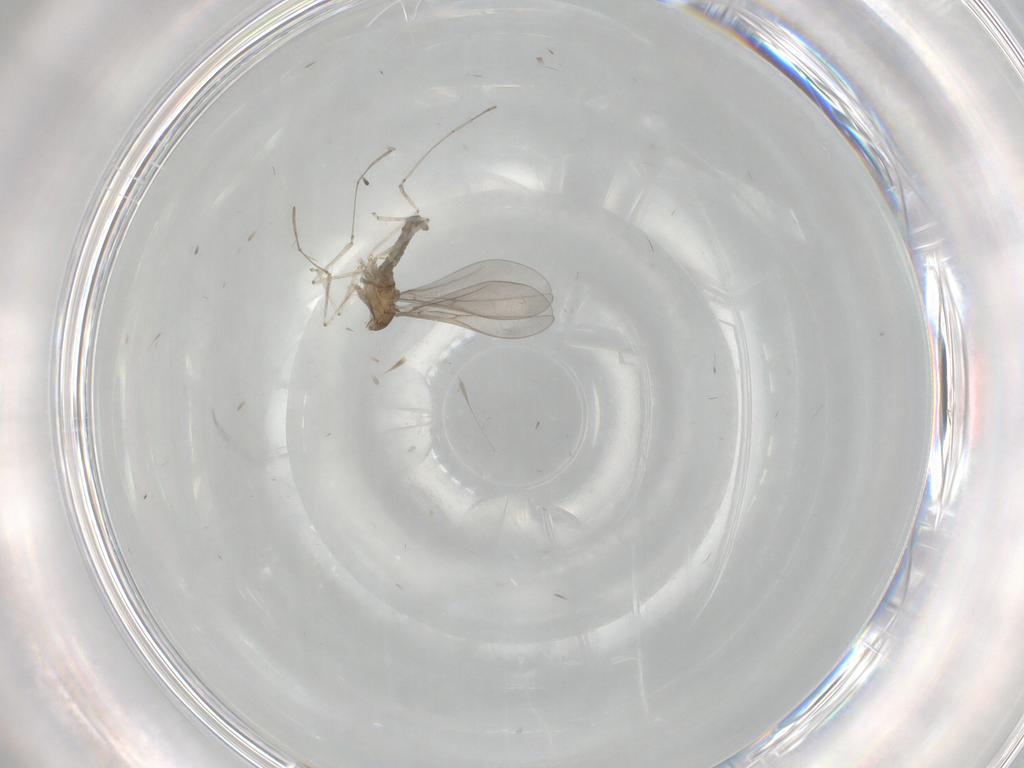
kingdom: Animalia
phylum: Arthropoda
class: Insecta
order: Diptera
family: Cecidomyiidae
